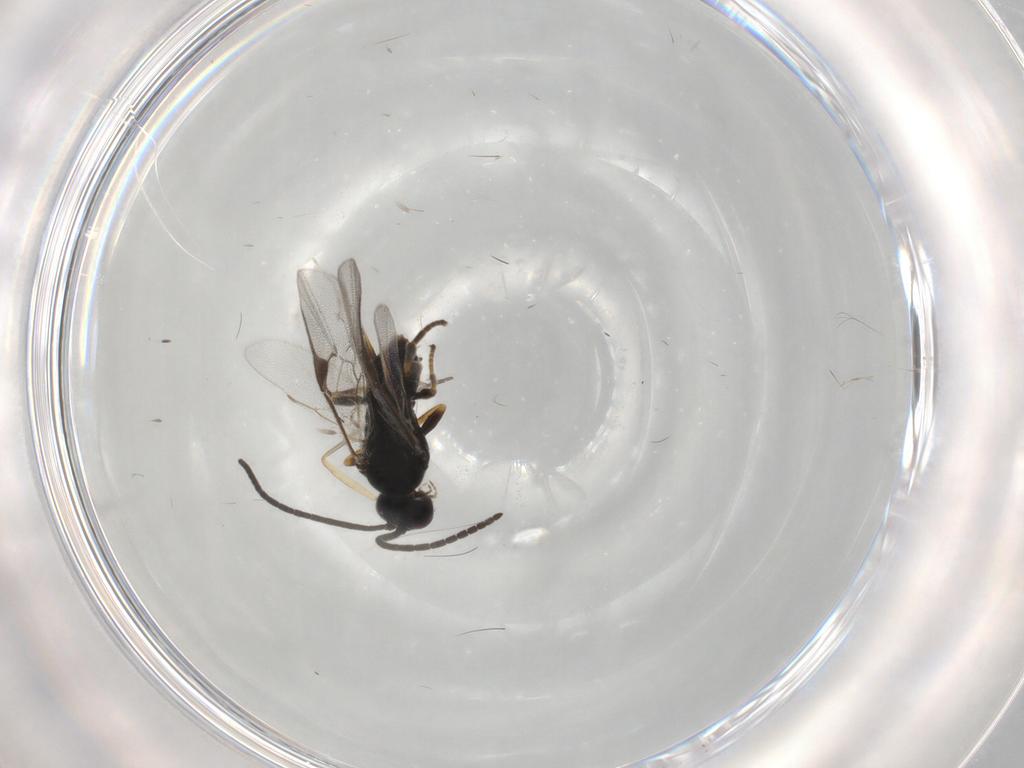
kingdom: Animalia
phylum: Arthropoda
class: Insecta
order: Hymenoptera
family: Braconidae
